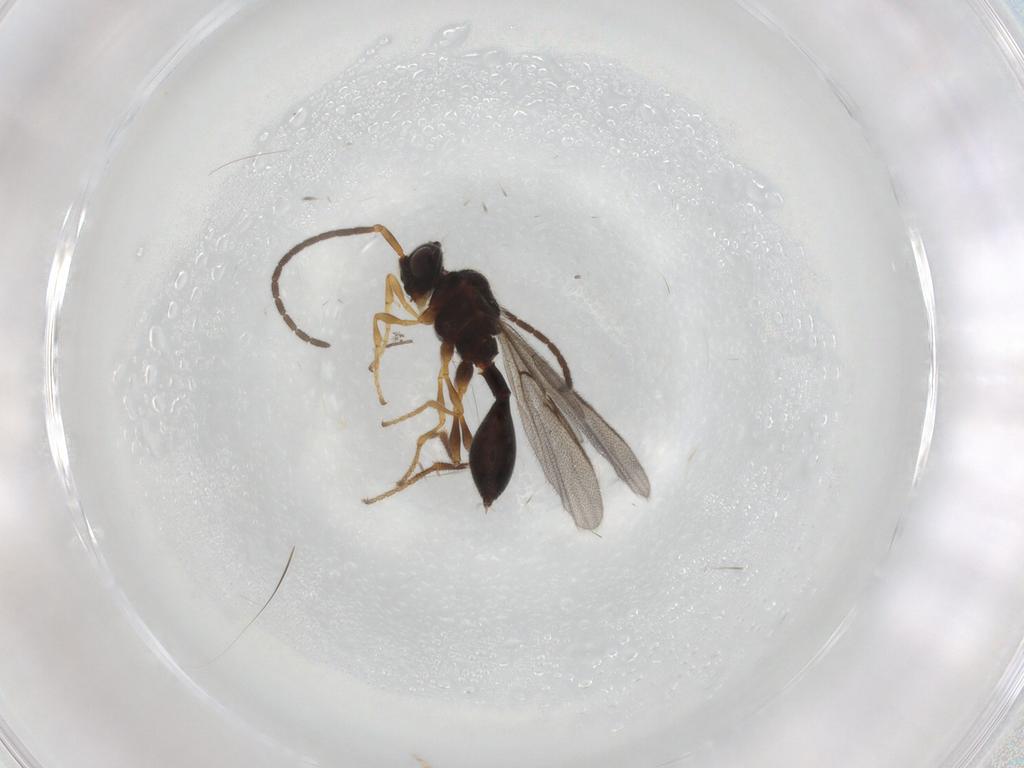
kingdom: Animalia
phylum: Arthropoda
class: Insecta
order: Hymenoptera
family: Diapriidae
